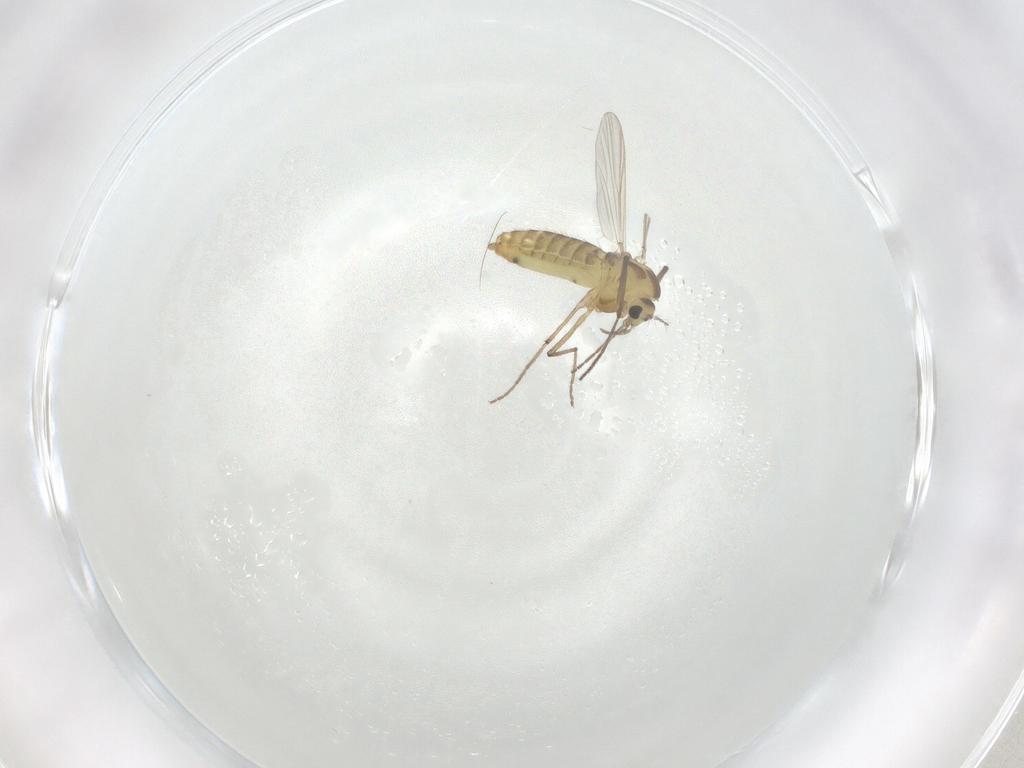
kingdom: Animalia
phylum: Arthropoda
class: Insecta
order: Diptera
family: Chironomidae
